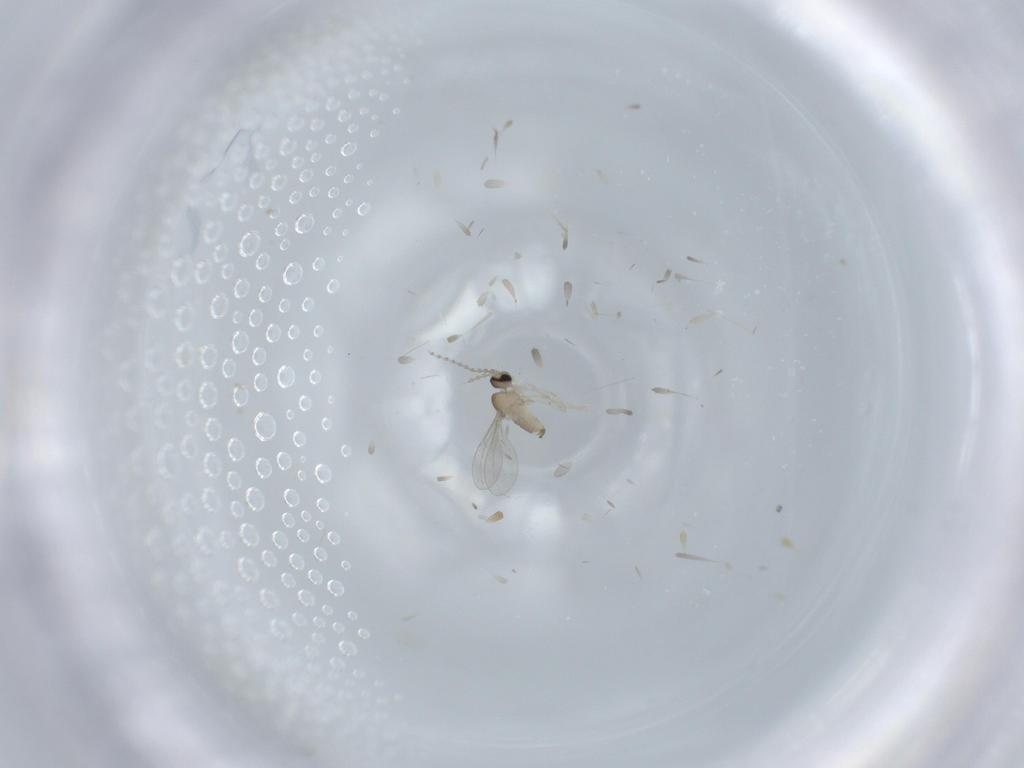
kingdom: Animalia
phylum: Arthropoda
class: Insecta
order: Diptera
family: Cecidomyiidae
